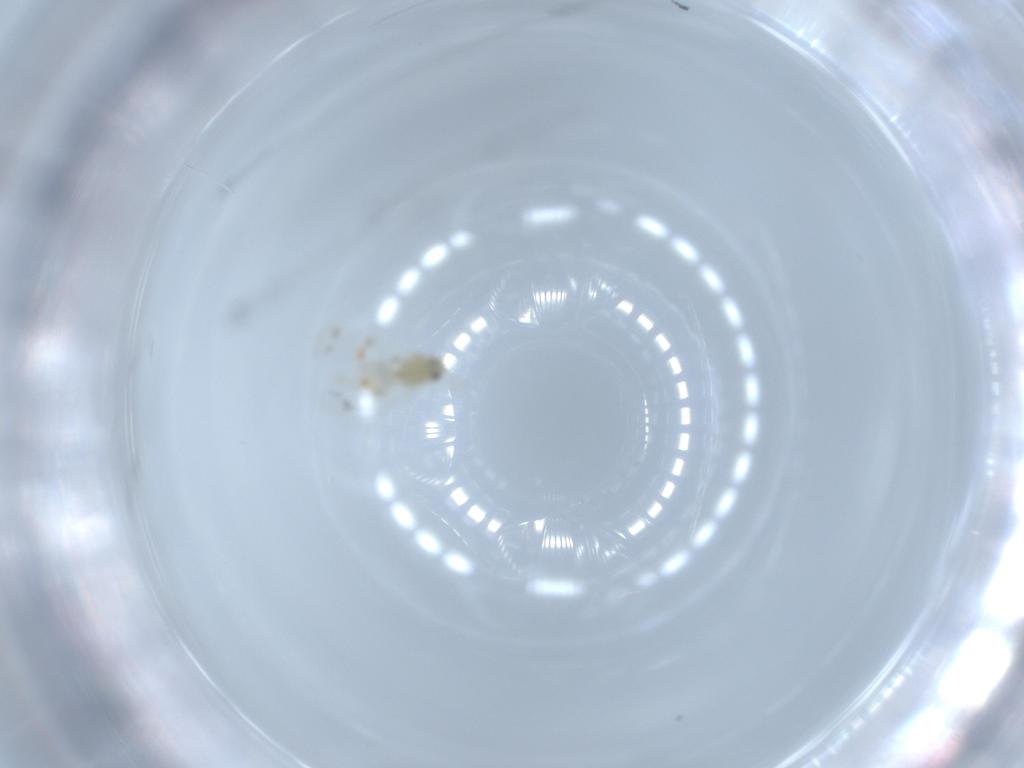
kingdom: Animalia
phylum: Arthropoda
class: Insecta
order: Hemiptera
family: Aleyrodidae
